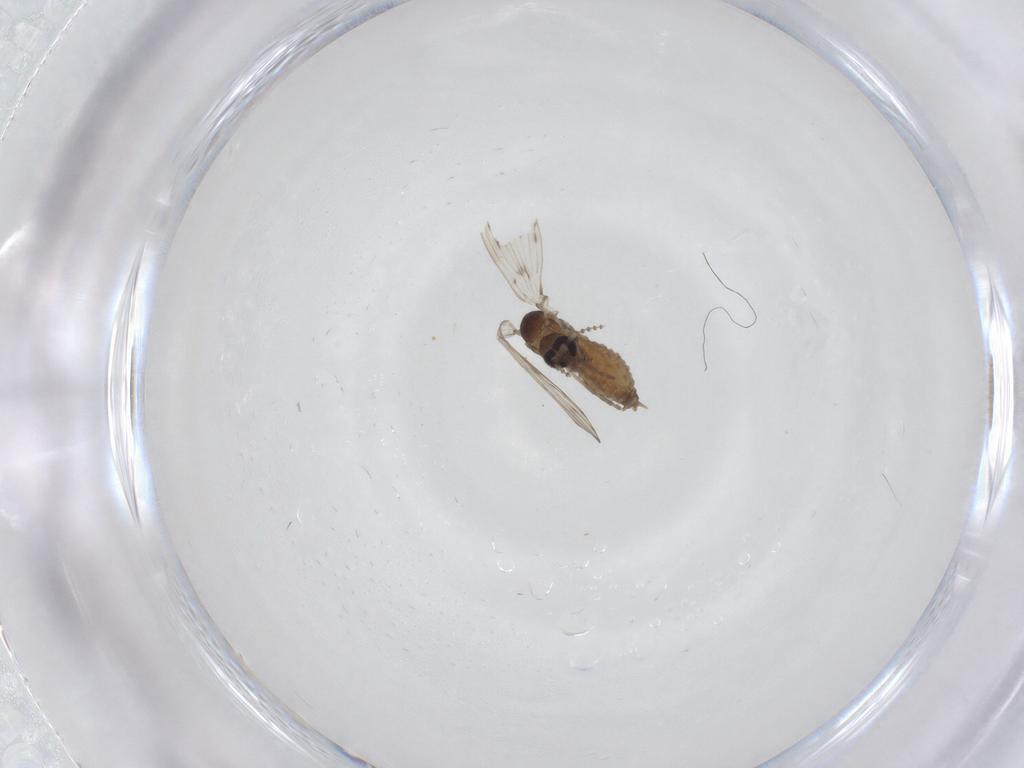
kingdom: Animalia
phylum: Arthropoda
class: Insecta
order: Diptera
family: Psychodidae
